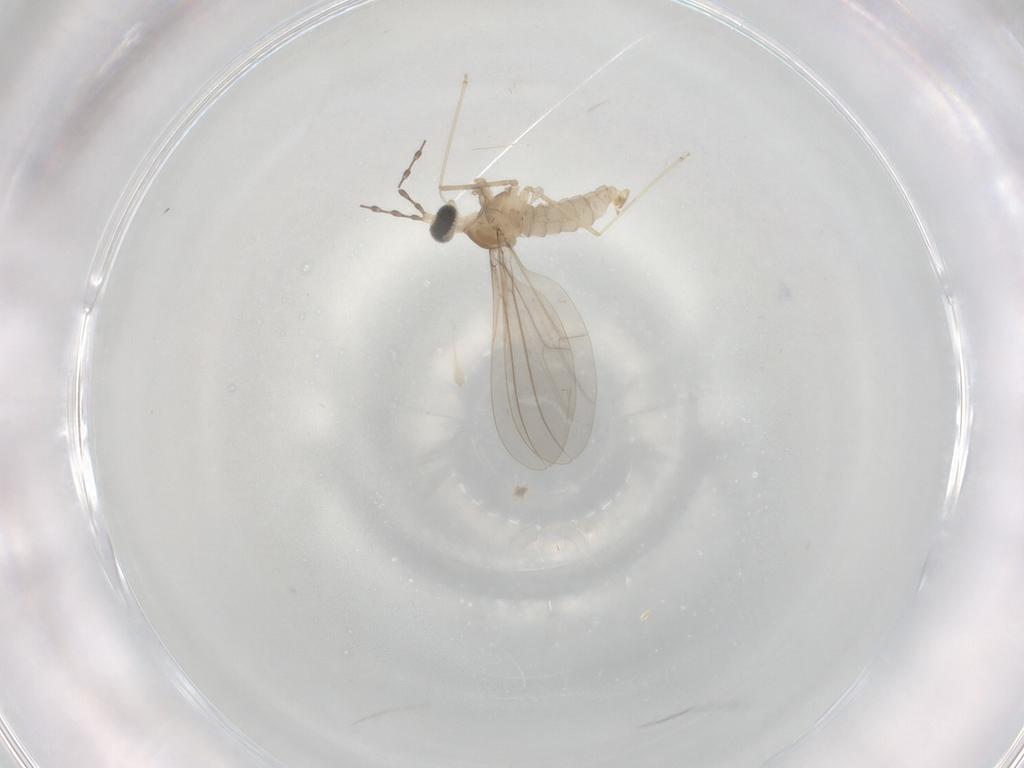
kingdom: Animalia
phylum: Arthropoda
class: Insecta
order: Diptera
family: Cecidomyiidae
